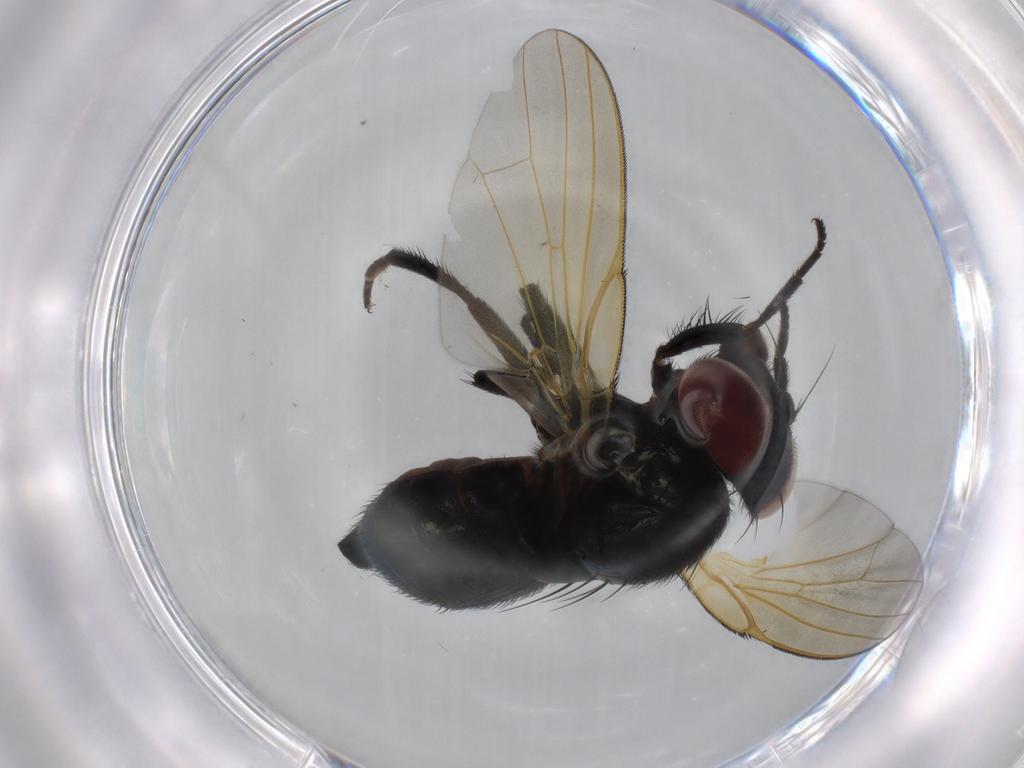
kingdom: Animalia
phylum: Arthropoda
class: Insecta
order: Diptera
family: Lonchaeidae
